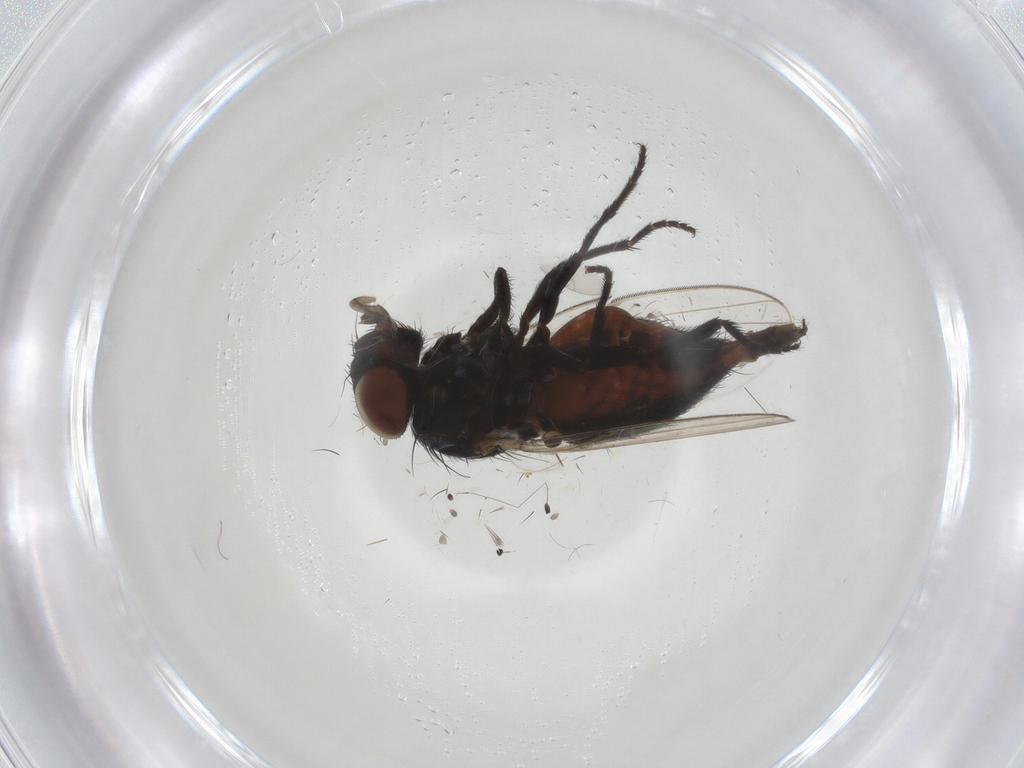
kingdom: Animalia
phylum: Arthropoda
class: Insecta
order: Diptera
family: Chloropidae
